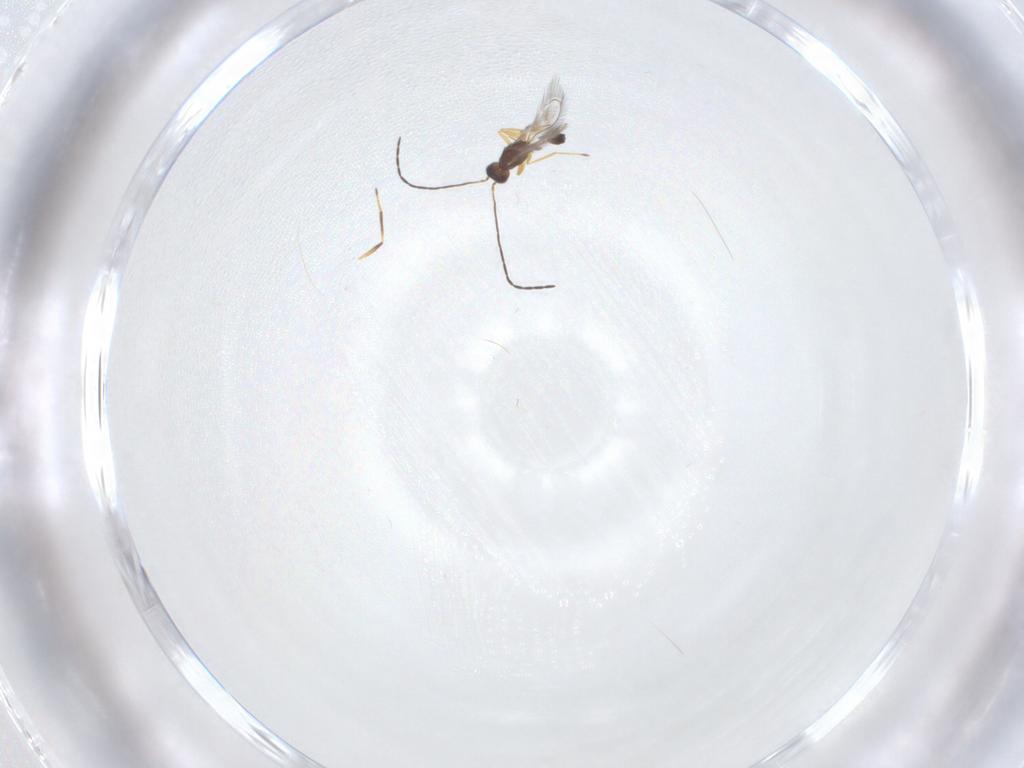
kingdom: Animalia
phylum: Arthropoda
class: Insecta
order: Hymenoptera
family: Mymaridae
